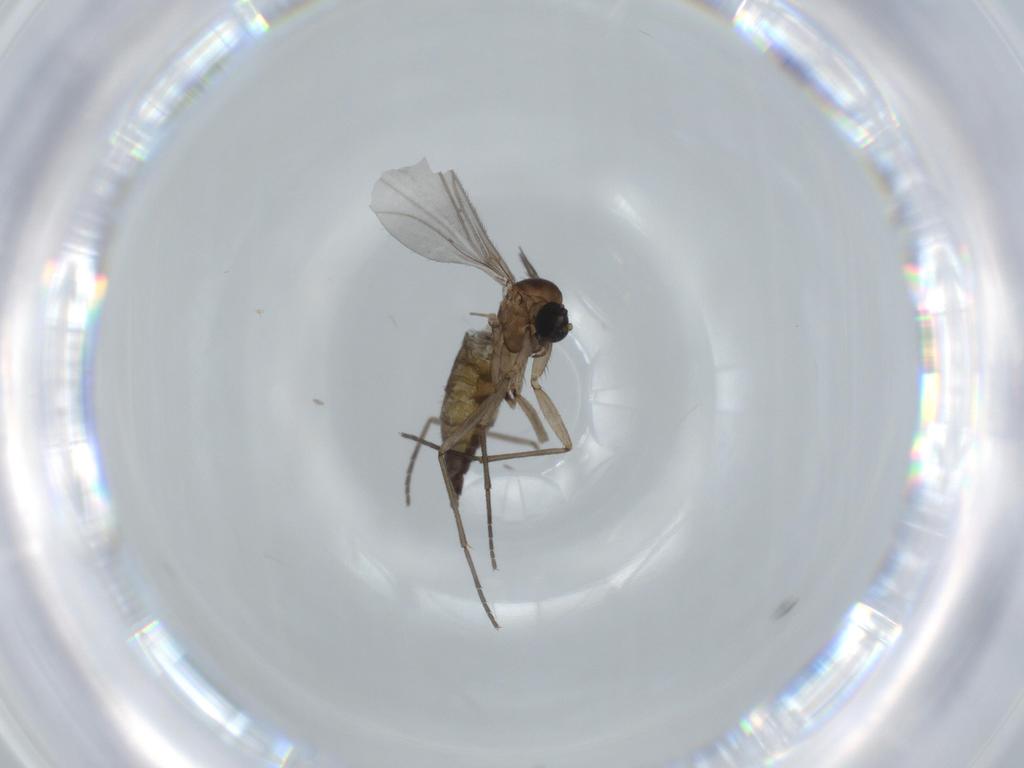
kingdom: Animalia
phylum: Arthropoda
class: Insecta
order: Diptera
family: Sciaridae
